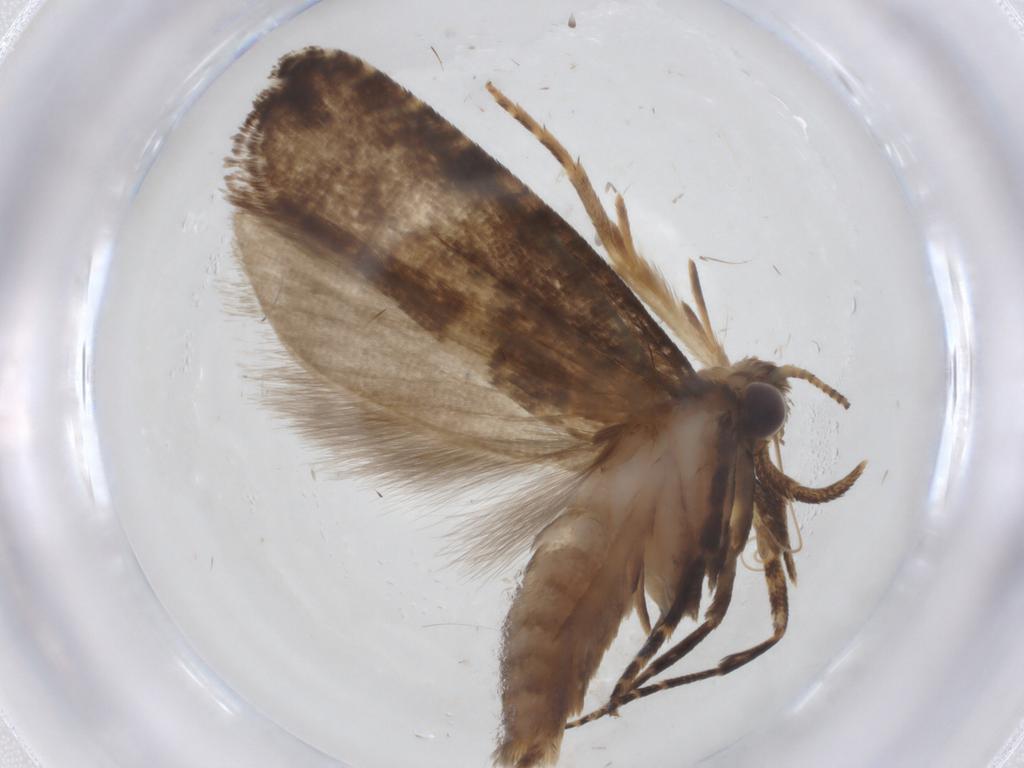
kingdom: Animalia
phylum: Arthropoda
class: Insecta
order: Lepidoptera
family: Glyphipterigidae
